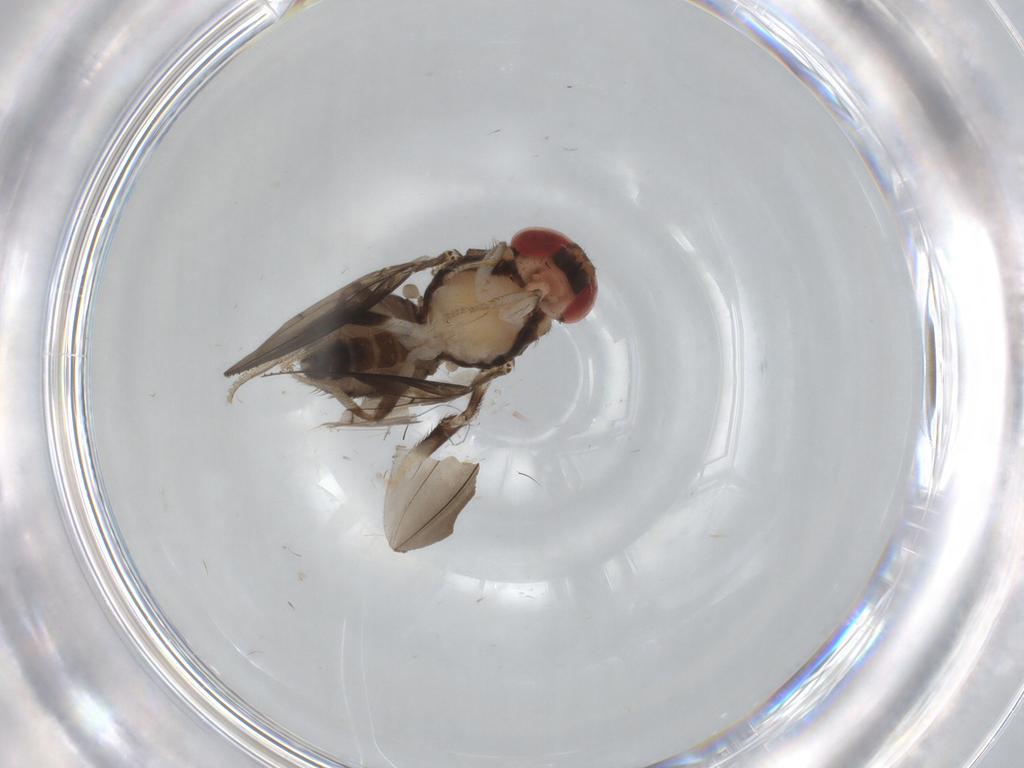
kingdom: Animalia
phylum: Arthropoda
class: Insecta
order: Diptera
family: Drosophilidae
